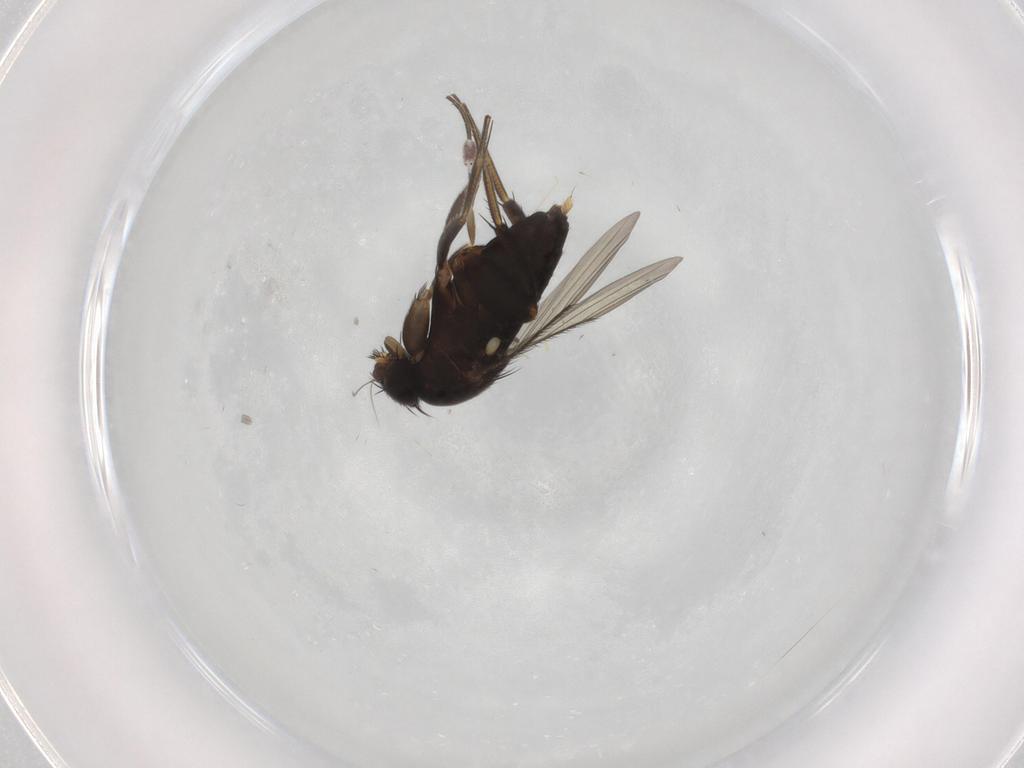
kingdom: Animalia
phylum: Arthropoda
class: Insecta
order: Diptera
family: Phoridae
